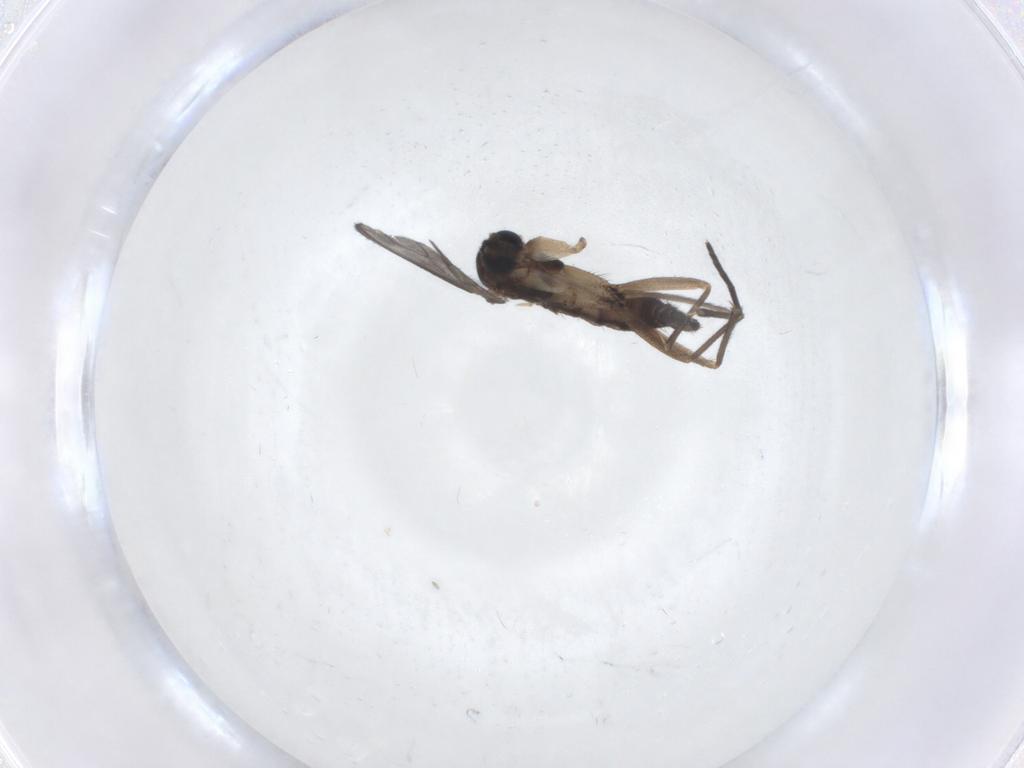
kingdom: Animalia
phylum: Arthropoda
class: Insecta
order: Diptera
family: Sciaridae
